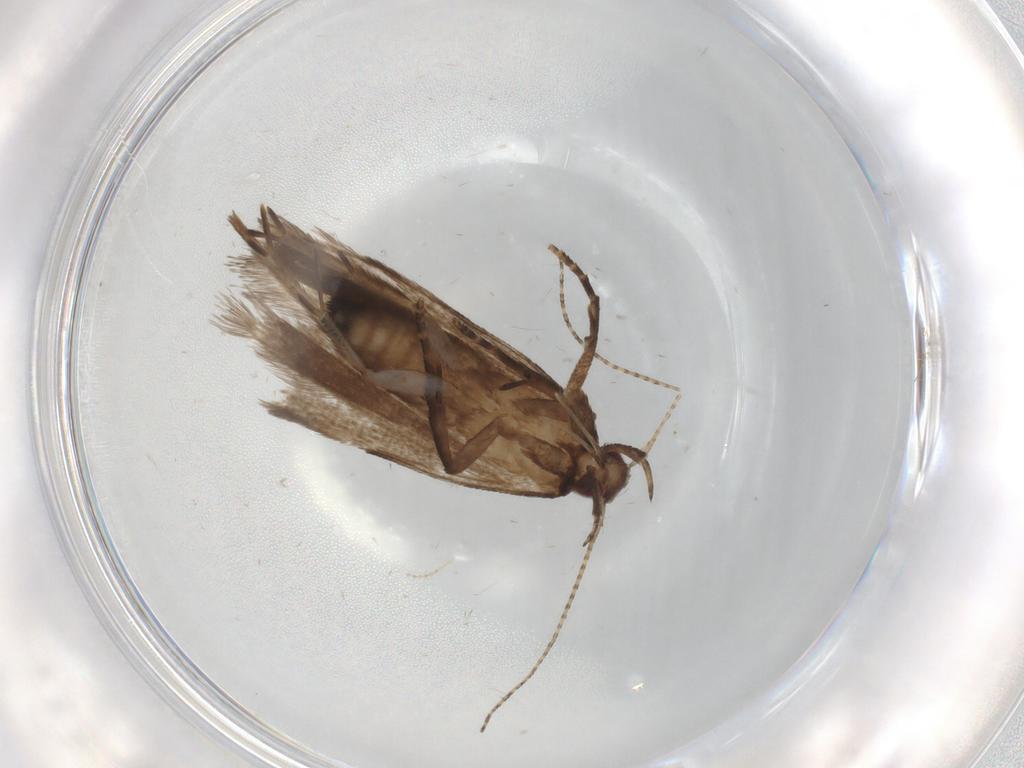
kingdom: Animalia
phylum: Arthropoda
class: Insecta
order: Lepidoptera
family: Gelechiidae
